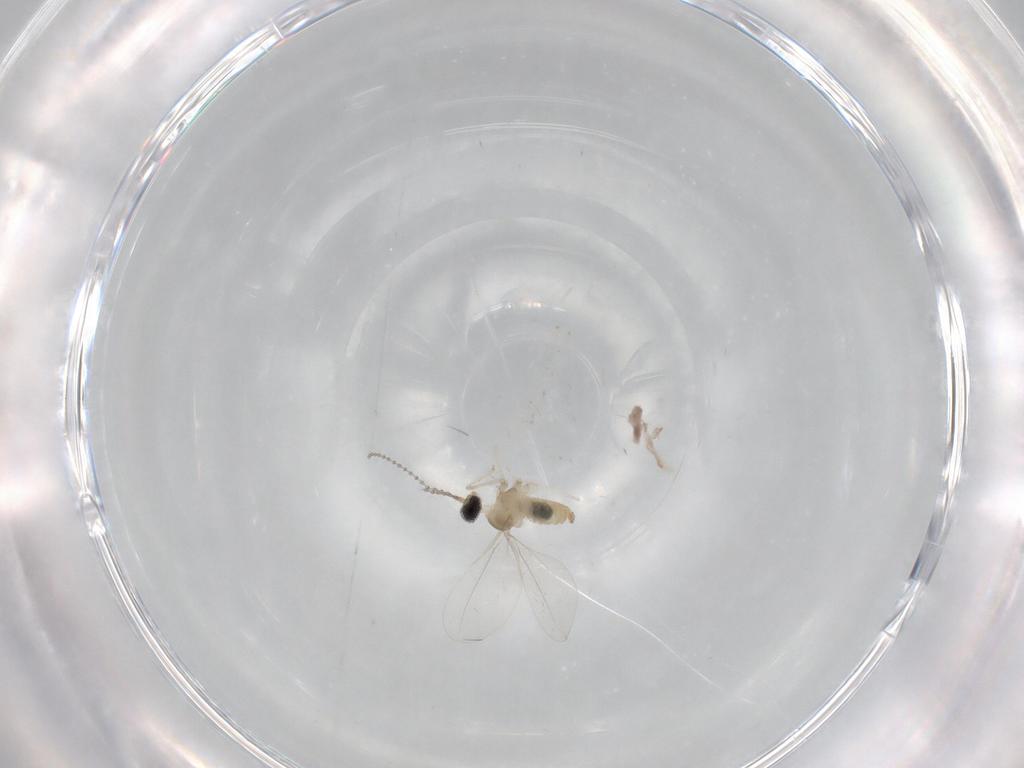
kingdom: Animalia
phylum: Arthropoda
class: Insecta
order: Diptera
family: Cecidomyiidae
